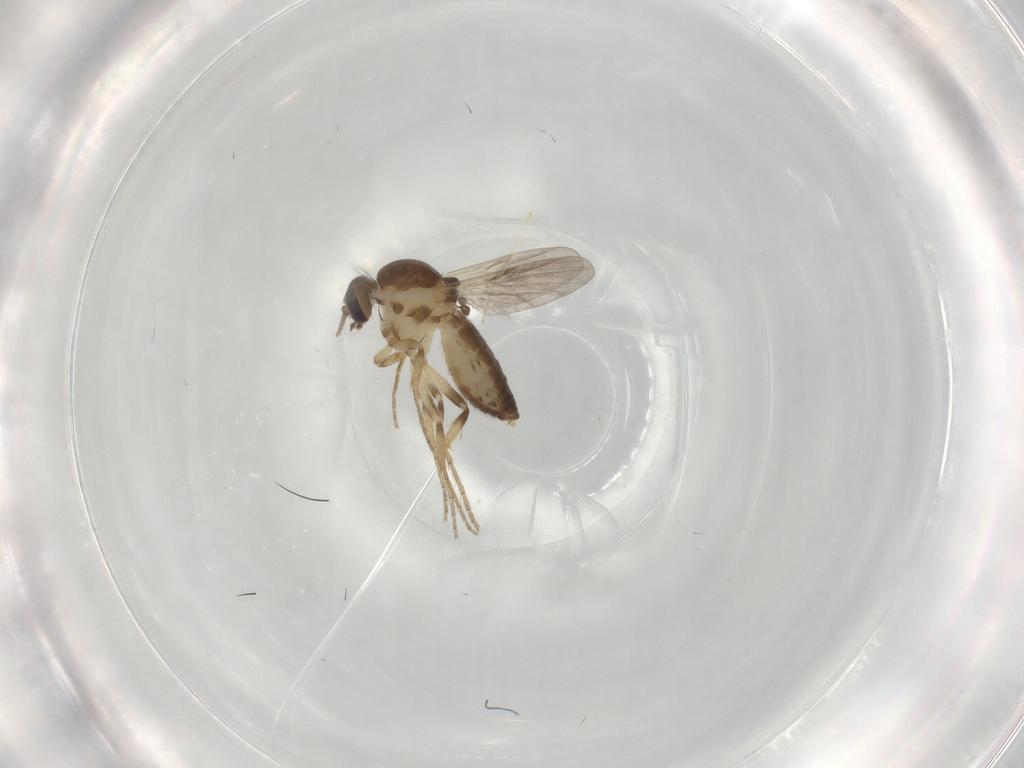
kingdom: Animalia
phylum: Arthropoda
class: Insecta
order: Diptera
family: Ceratopogonidae
